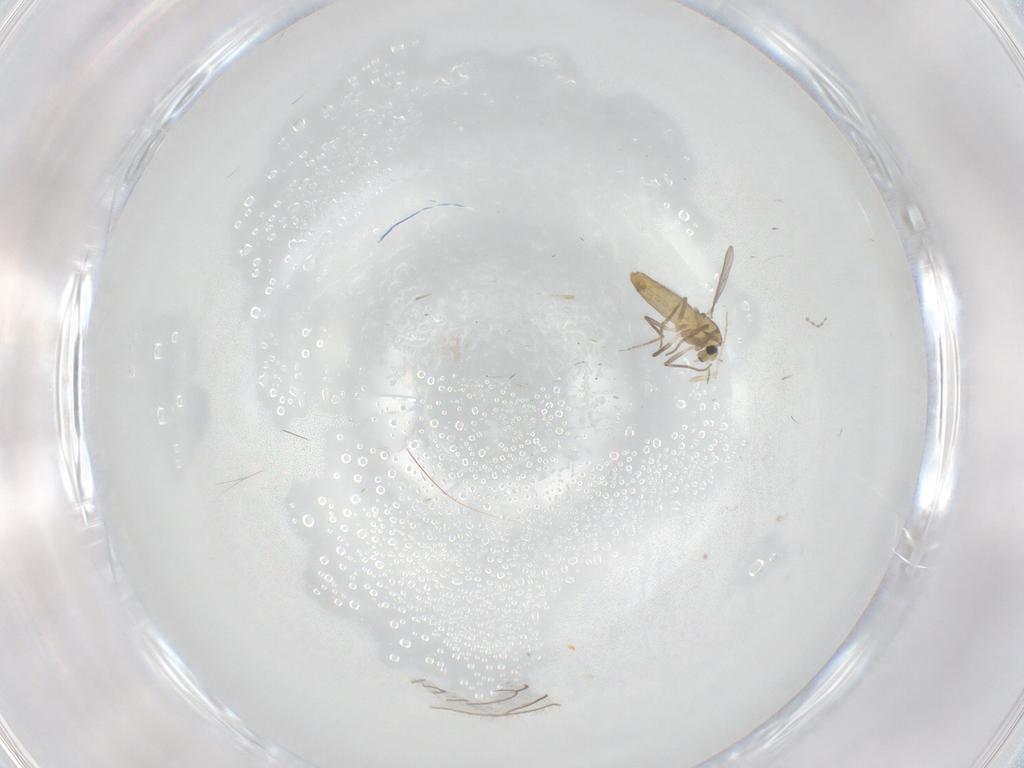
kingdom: Animalia
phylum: Arthropoda
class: Insecta
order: Diptera
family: Chironomidae
